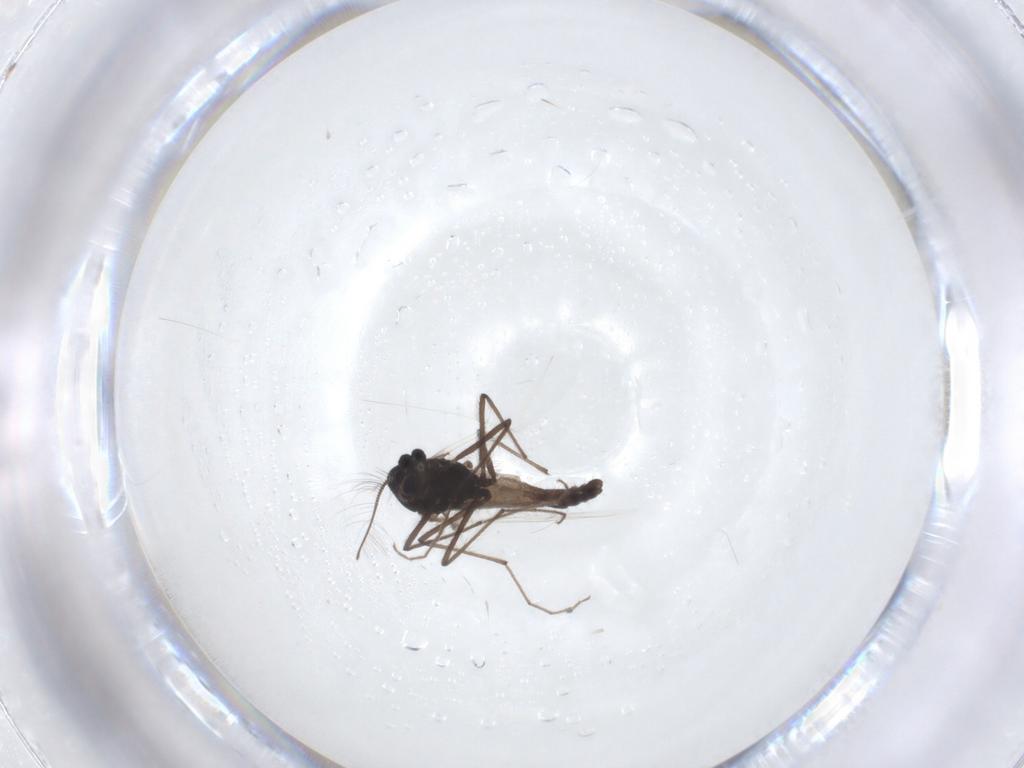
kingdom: Animalia
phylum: Arthropoda
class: Insecta
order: Diptera
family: Chironomidae
